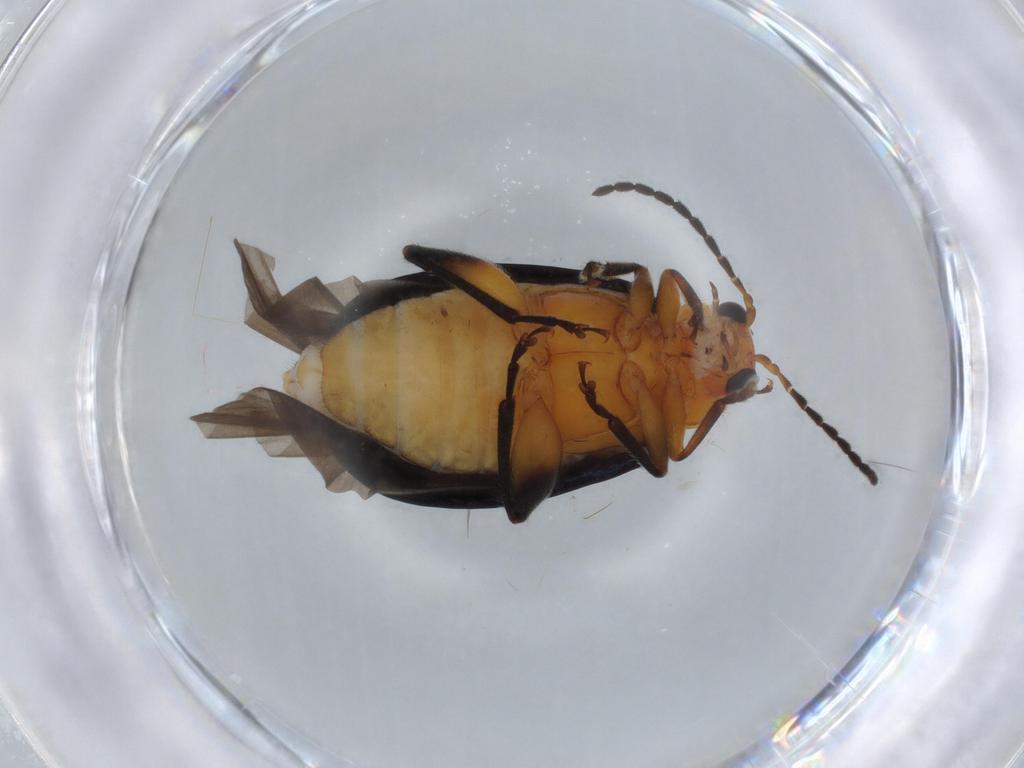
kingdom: Animalia
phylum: Arthropoda
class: Insecta
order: Coleoptera
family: Chrysomelidae
